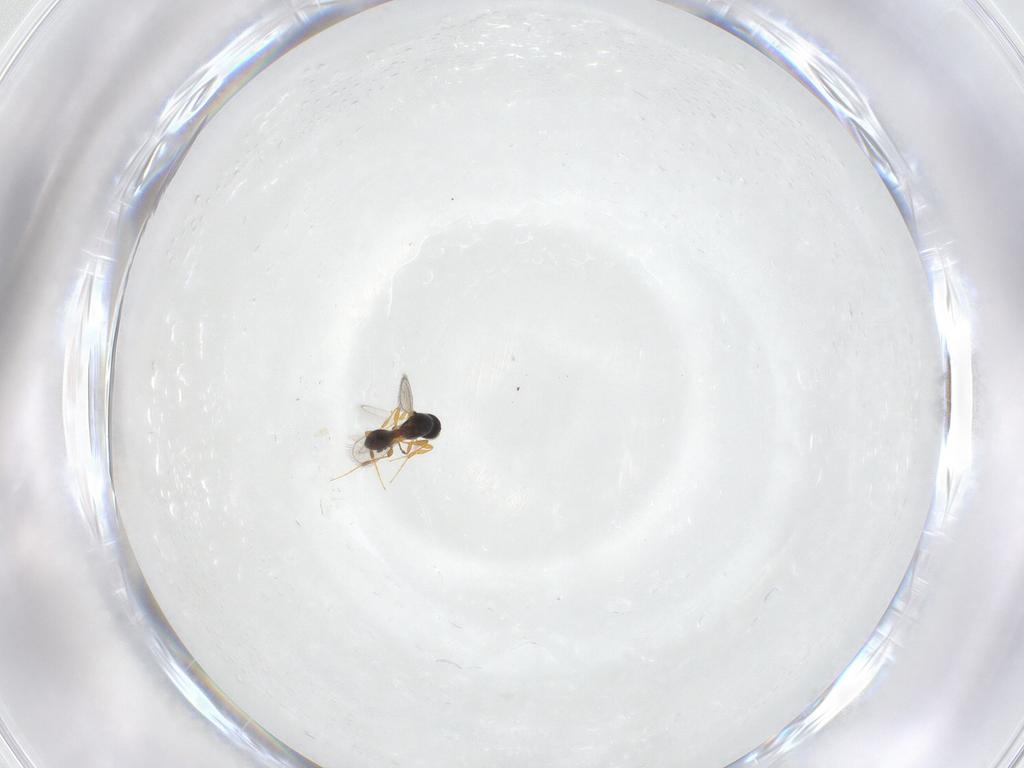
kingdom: Animalia
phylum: Arthropoda
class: Insecta
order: Hymenoptera
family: Platygastridae
